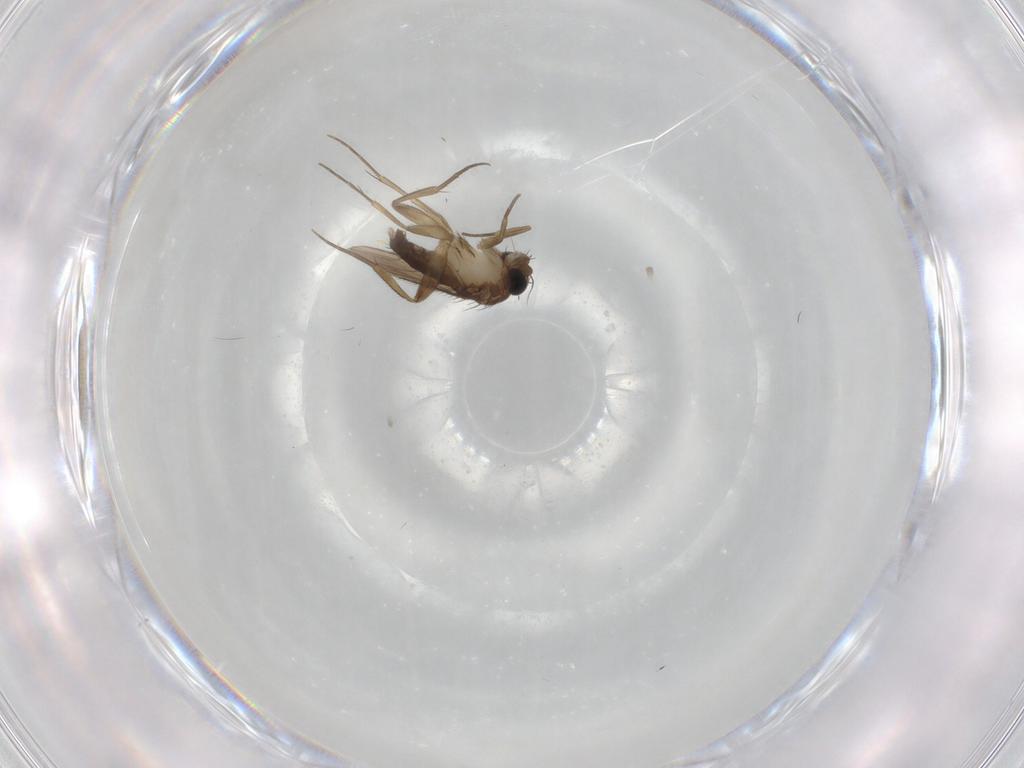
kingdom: Animalia
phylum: Arthropoda
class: Insecta
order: Diptera
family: Phoridae
